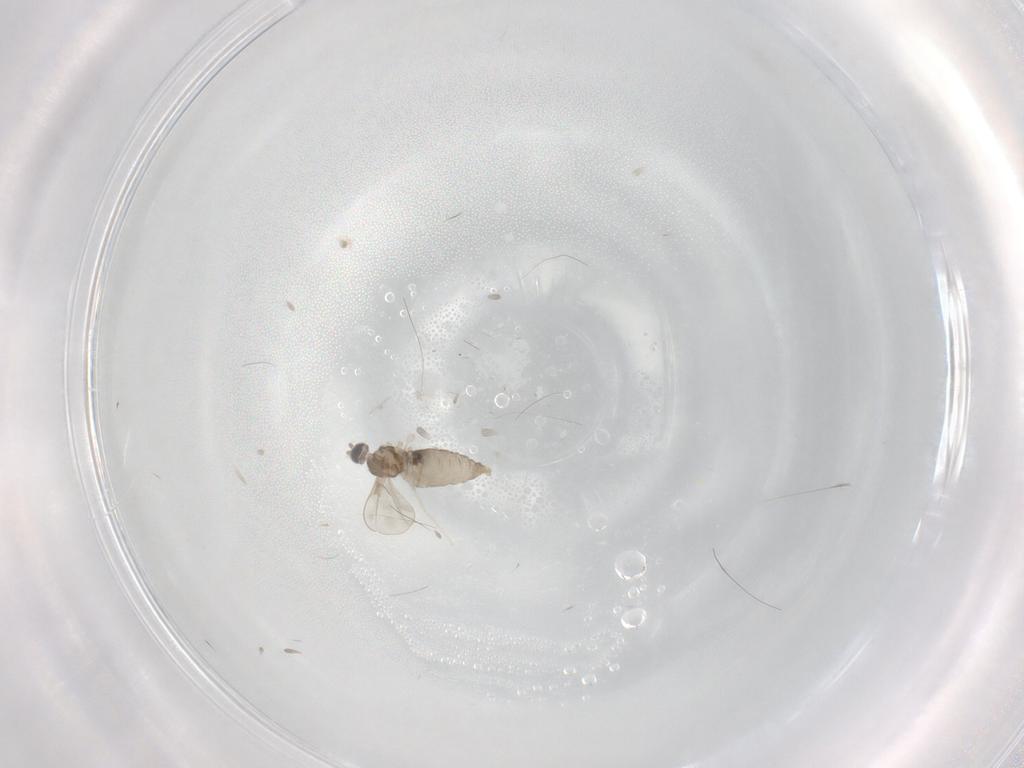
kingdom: Animalia
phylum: Arthropoda
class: Insecta
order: Diptera
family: Cecidomyiidae
